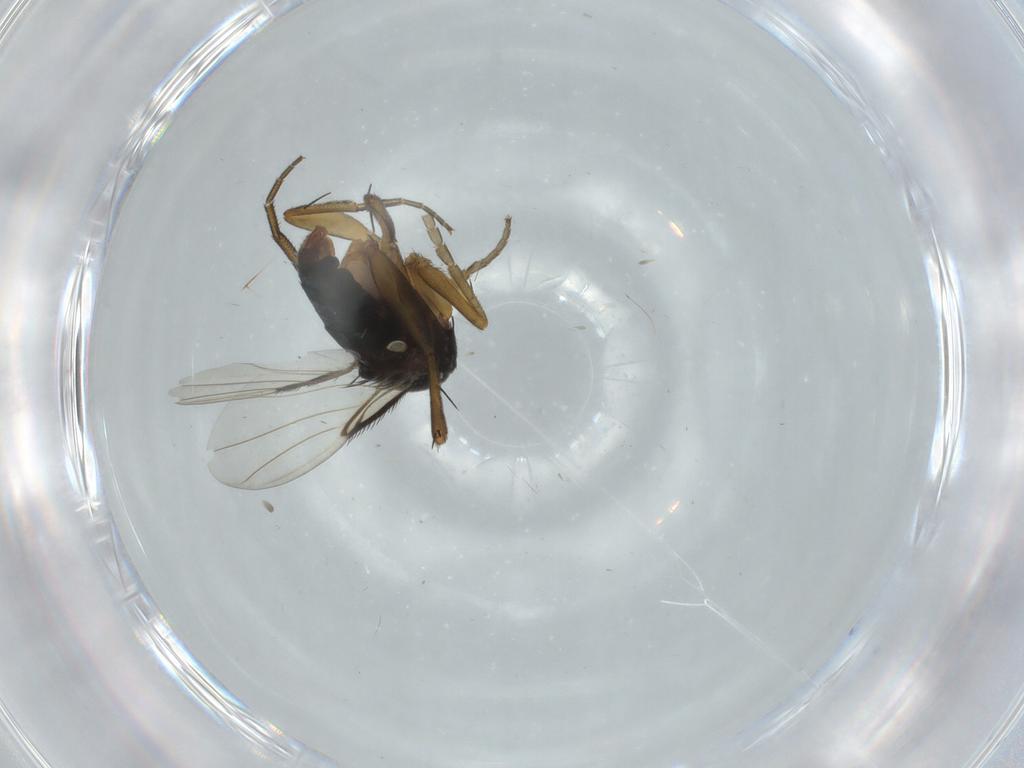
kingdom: Animalia
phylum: Arthropoda
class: Insecta
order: Diptera
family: Phoridae
